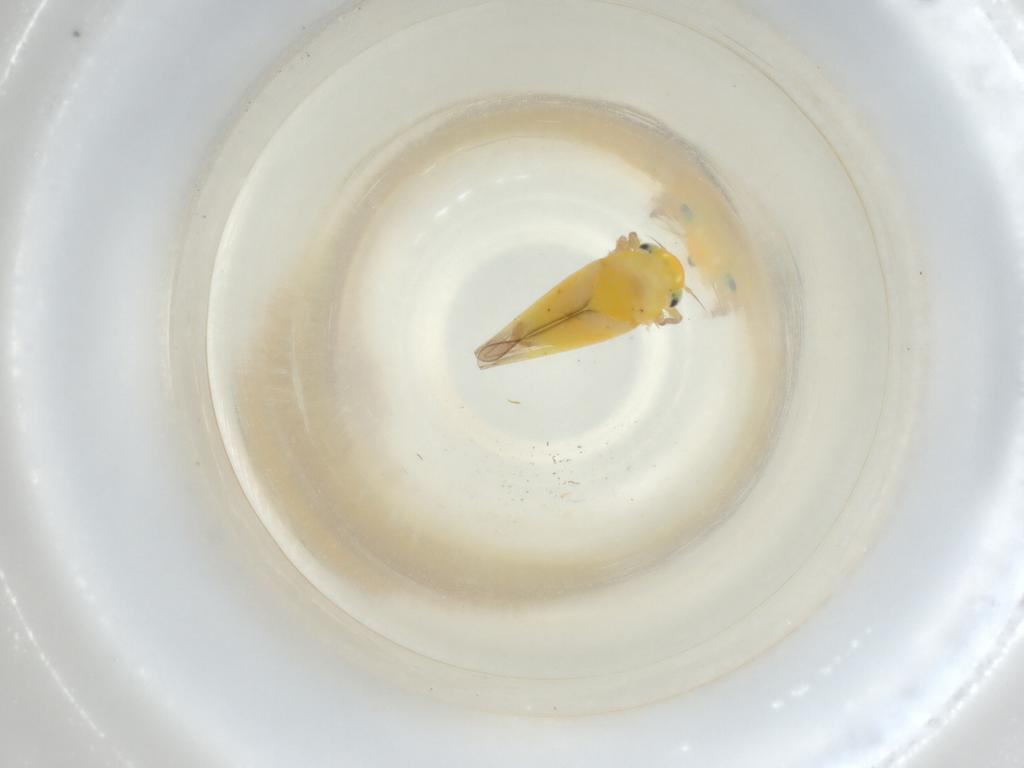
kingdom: Animalia
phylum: Arthropoda
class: Insecta
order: Hemiptera
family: Cicadellidae
